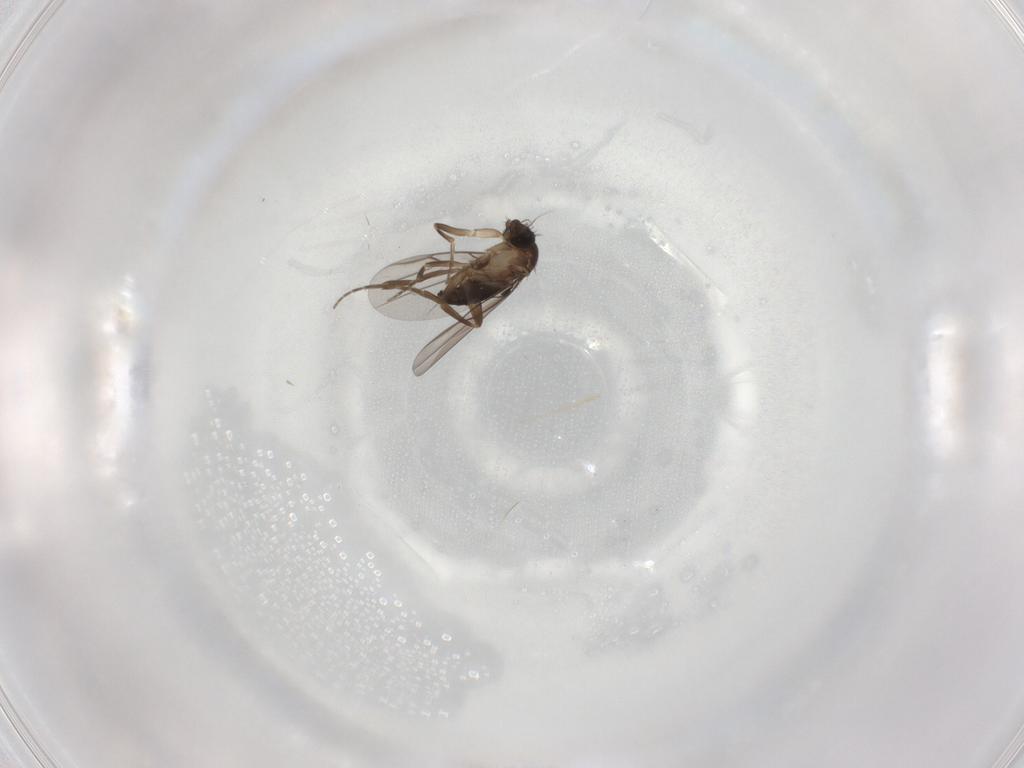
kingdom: Animalia
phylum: Arthropoda
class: Insecta
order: Diptera
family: Phoridae
